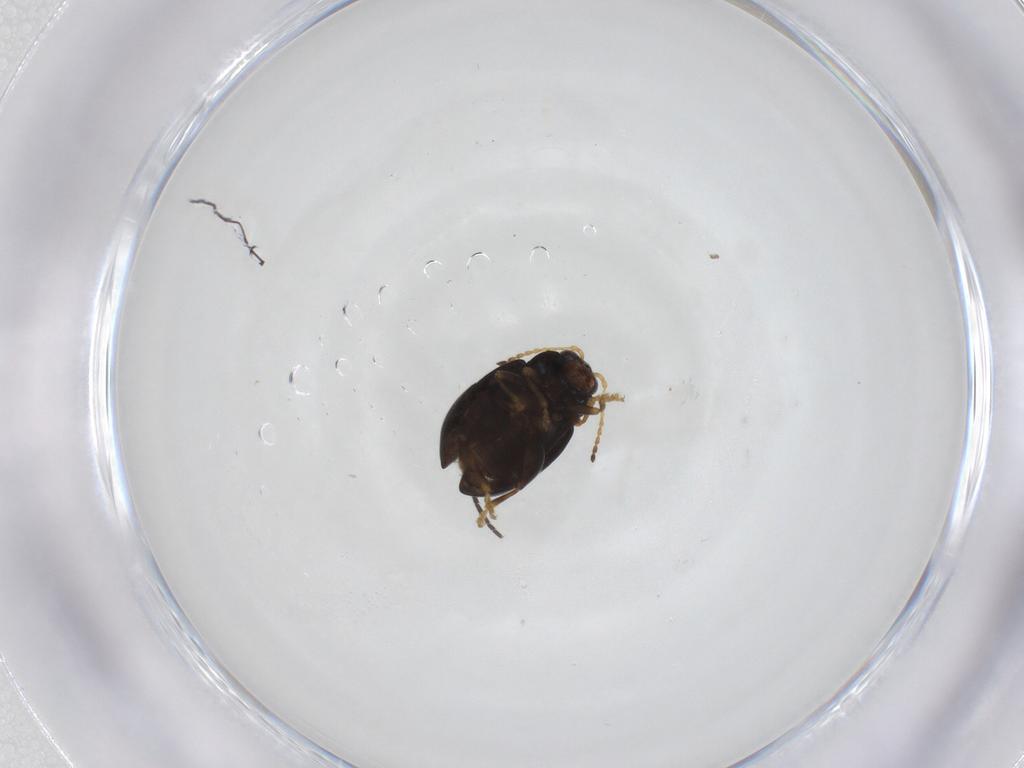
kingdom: Animalia
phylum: Arthropoda
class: Insecta
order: Coleoptera
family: Chrysomelidae
